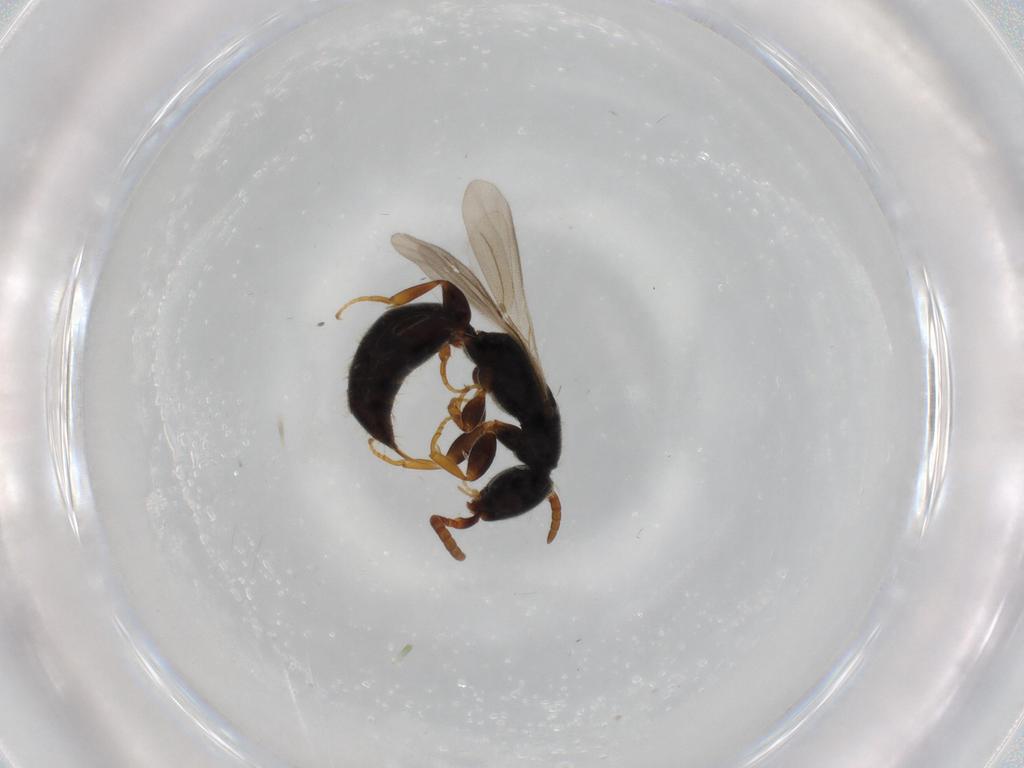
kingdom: Animalia
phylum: Arthropoda
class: Insecta
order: Hymenoptera
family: Bethylidae
